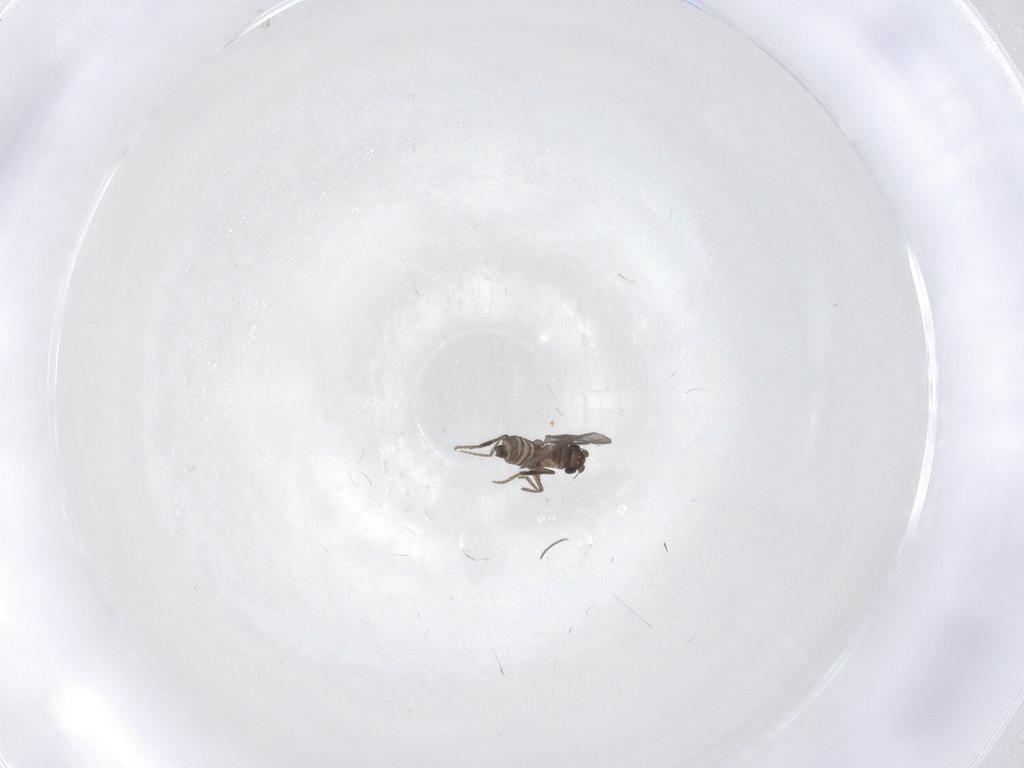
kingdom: Animalia
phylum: Arthropoda
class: Insecta
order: Diptera
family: Phoridae
